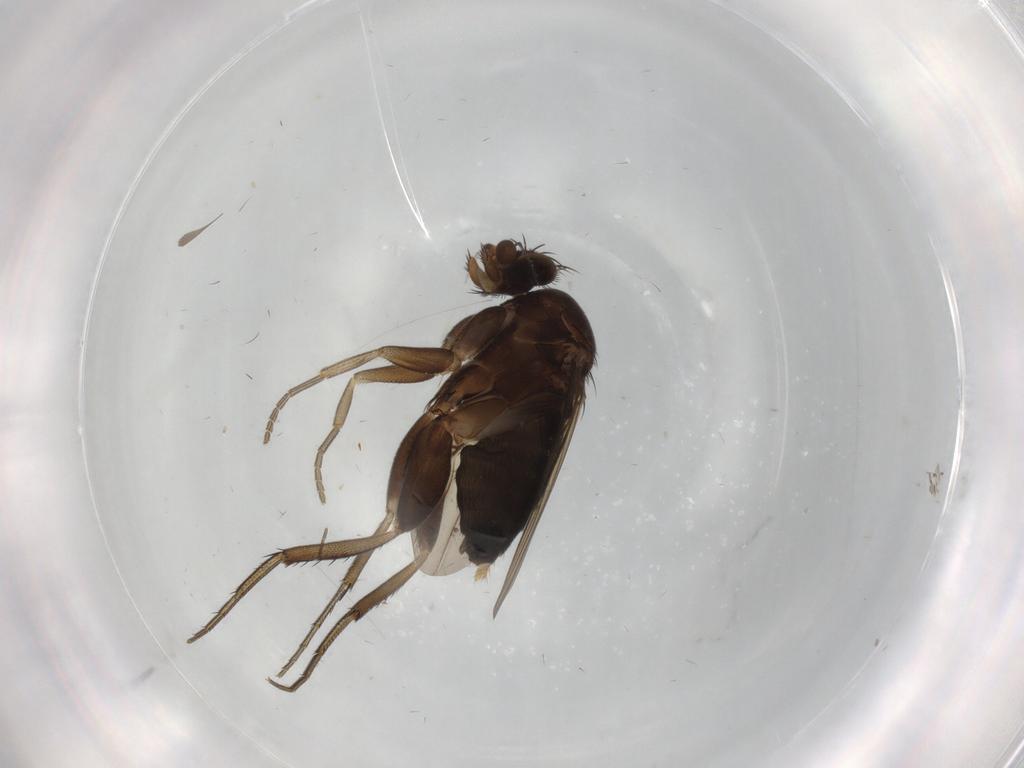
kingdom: Animalia
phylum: Arthropoda
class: Insecta
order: Diptera
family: Phoridae
